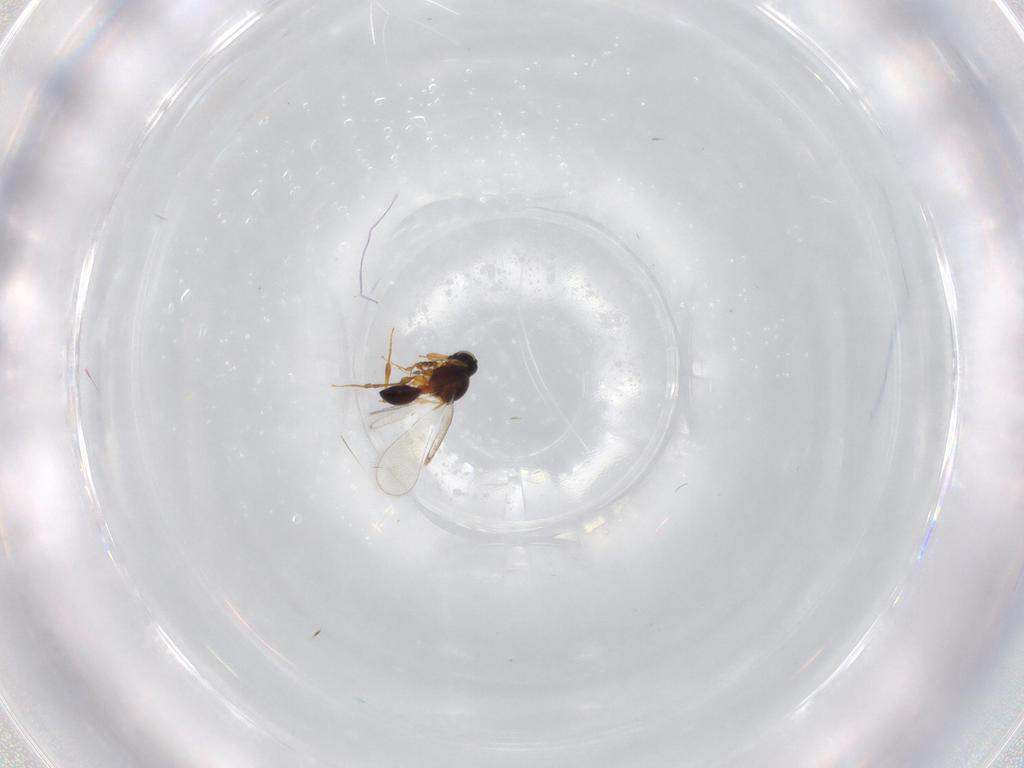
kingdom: Animalia
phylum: Arthropoda
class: Insecta
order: Hymenoptera
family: Platygastridae
